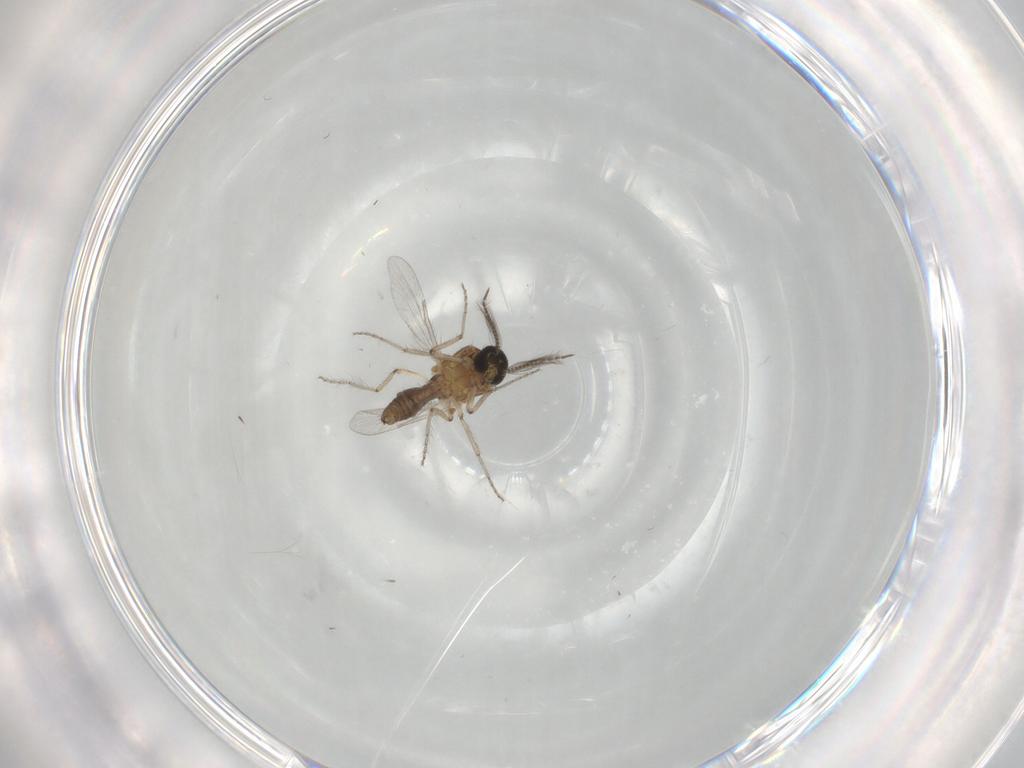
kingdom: Animalia
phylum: Arthropoda
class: Insecta
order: Diptera
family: Ceratopogonidae
